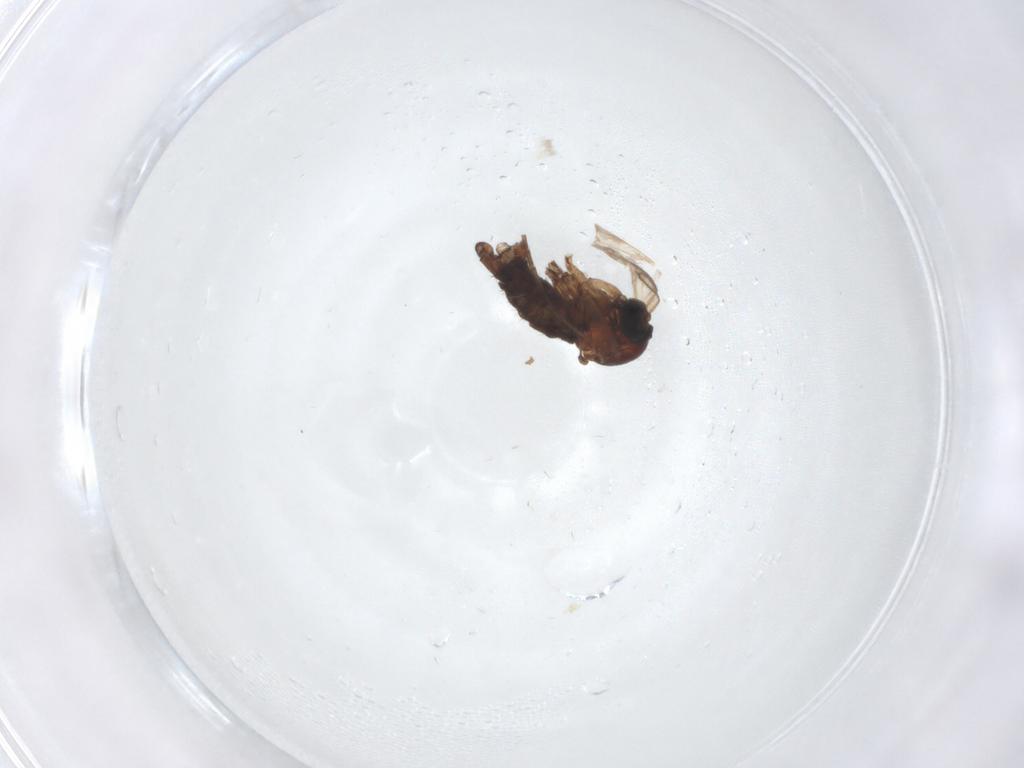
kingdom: Animalia
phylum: Arthropoda
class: Insecta
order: Diptera
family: Sciaridae
